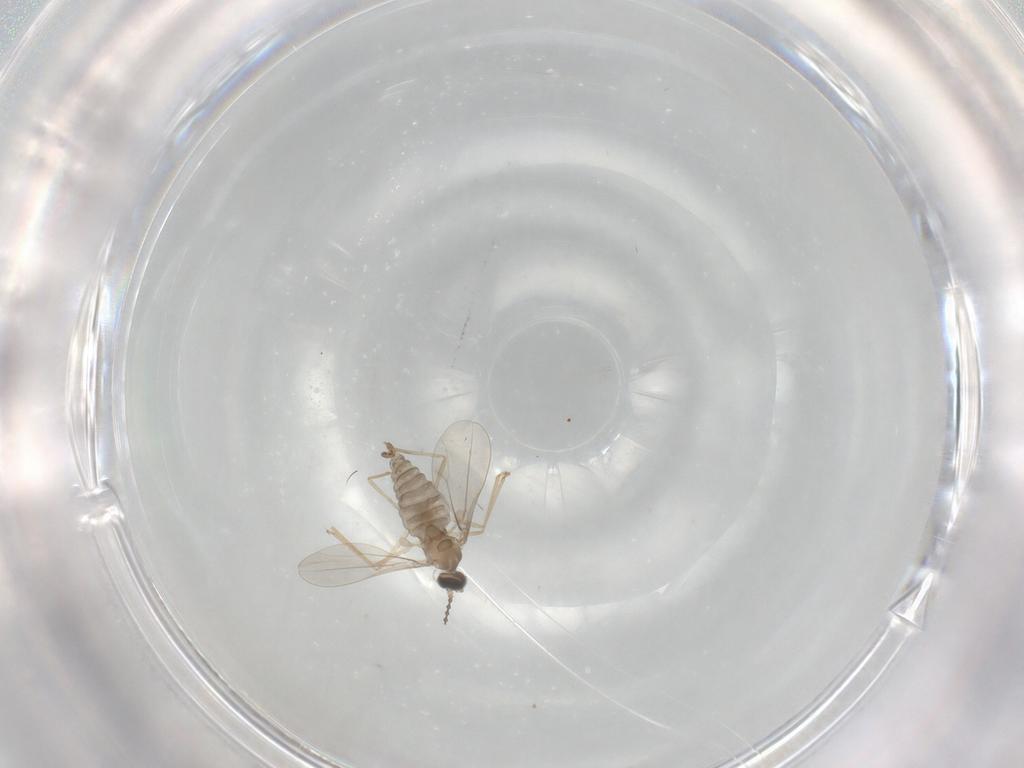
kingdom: Animalia
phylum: Arthropoda
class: Insecta
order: Diptera
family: Cecidomyiidae
